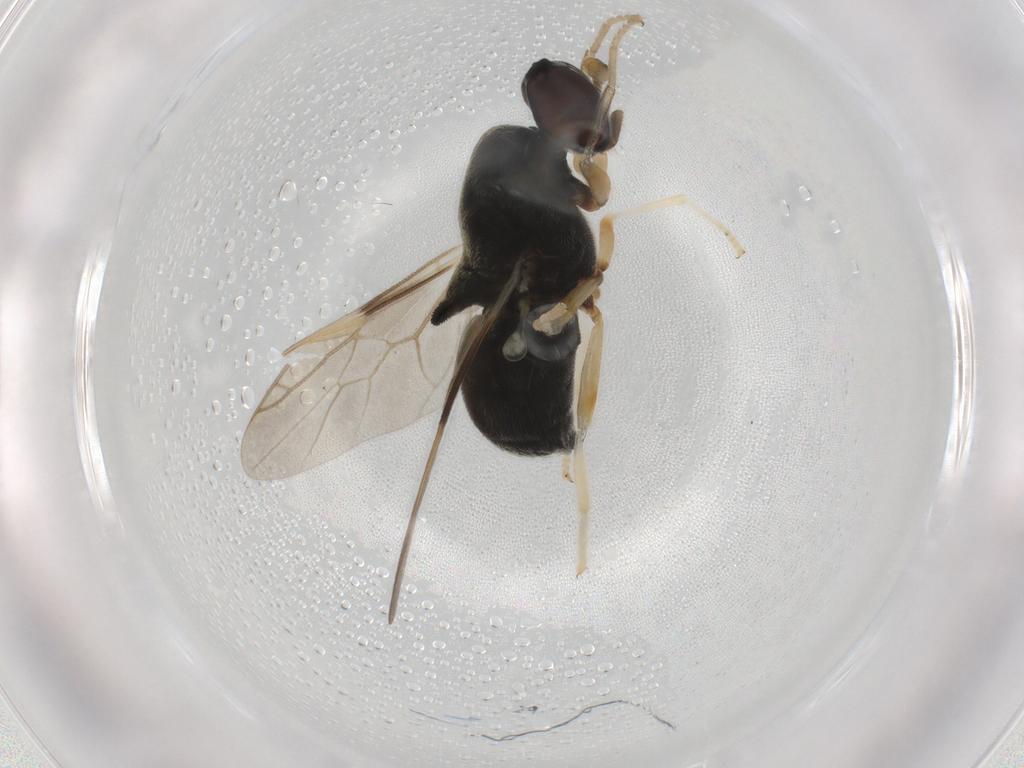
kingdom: Animalia
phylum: Arthropoda
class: Insecta
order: Diptera
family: Stratiomyidae
